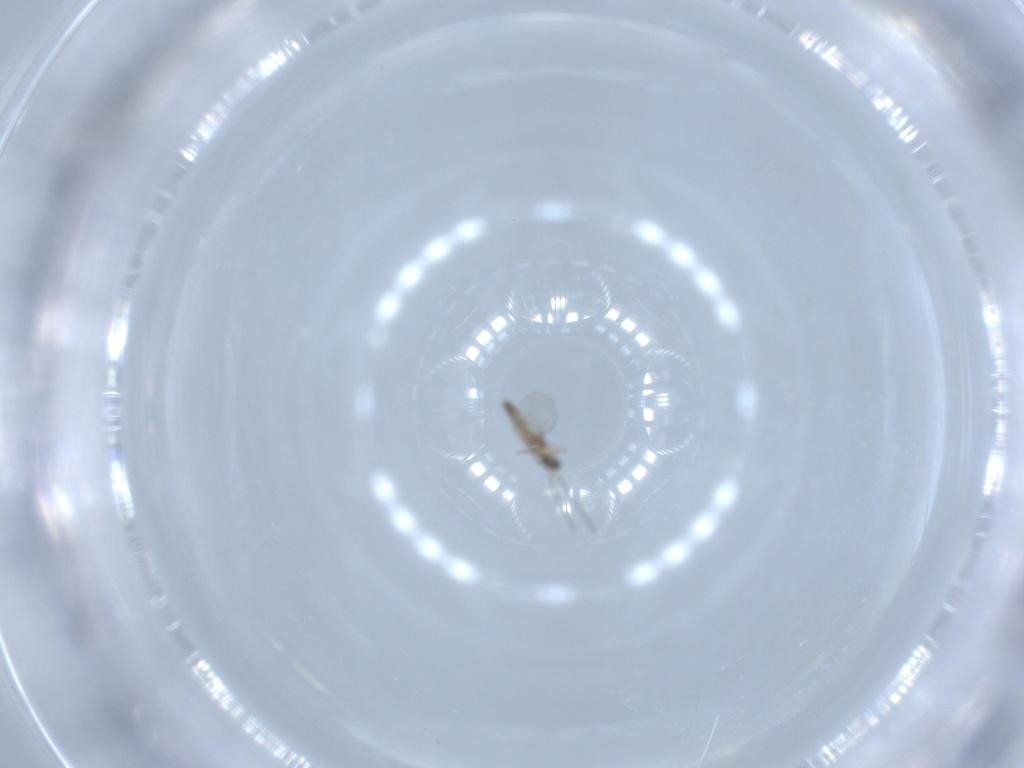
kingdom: Animalia
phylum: Arthropoda
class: Insecta
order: Diptera
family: Cecidomyiidae
